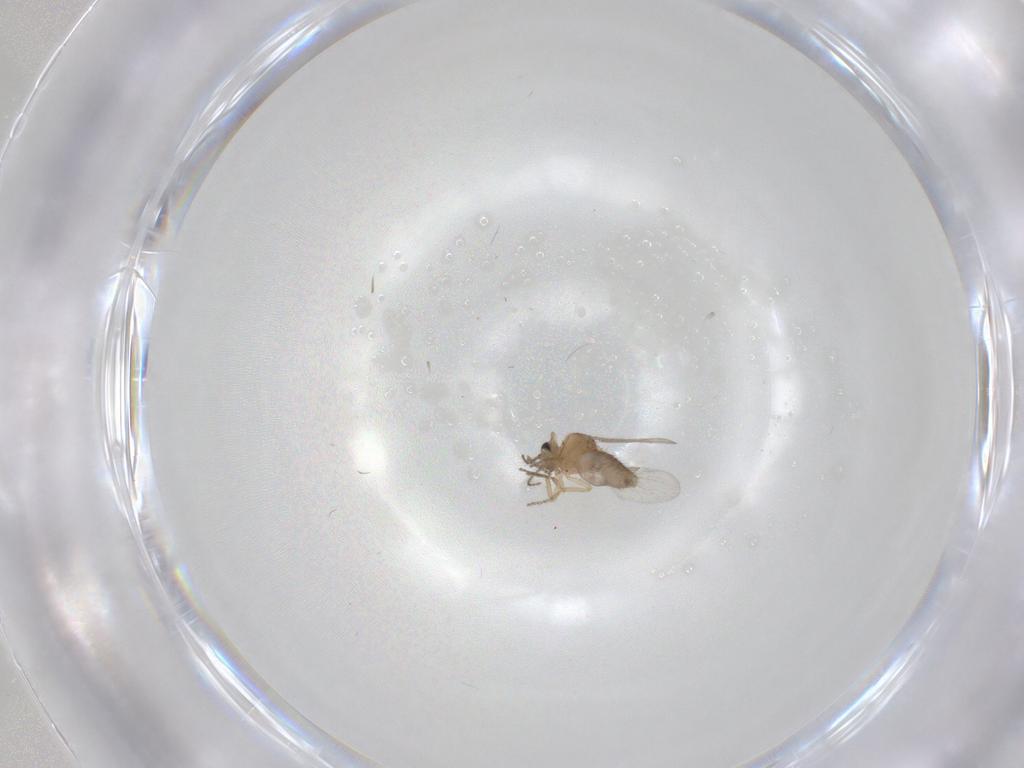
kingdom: Animalia
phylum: Arthropoda
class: Insecta
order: Diptera
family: Ceratopogonidae
